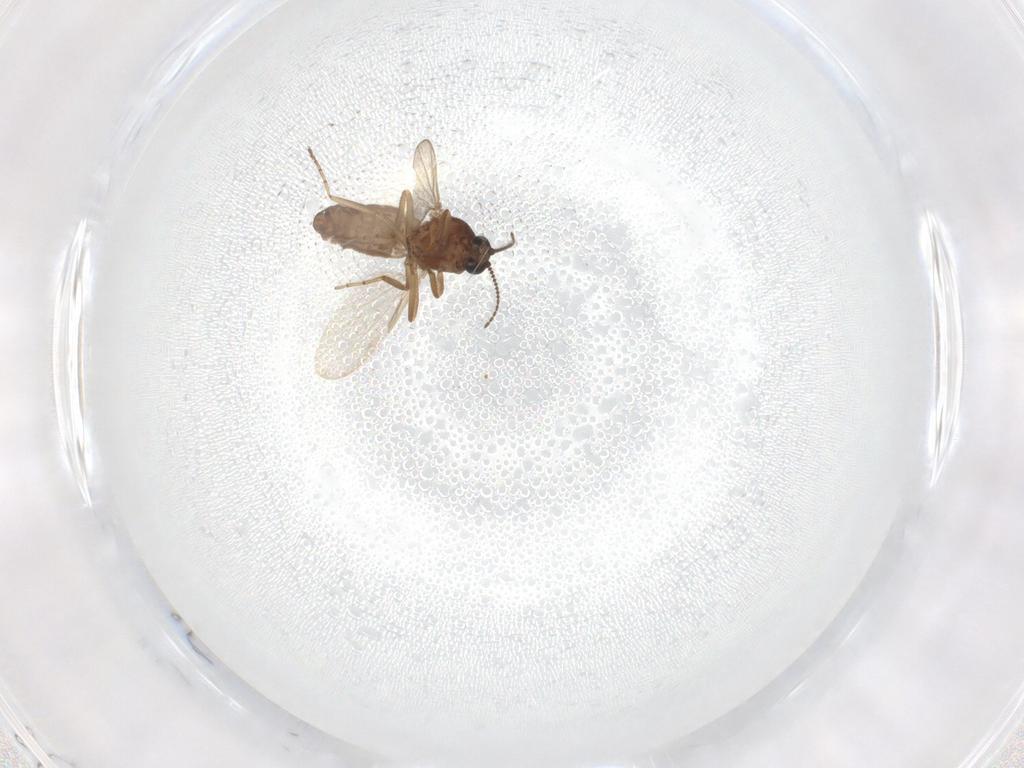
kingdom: Animalia
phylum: Arthropoda
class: Insecta
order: Diptera
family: Ceratopogonidae
